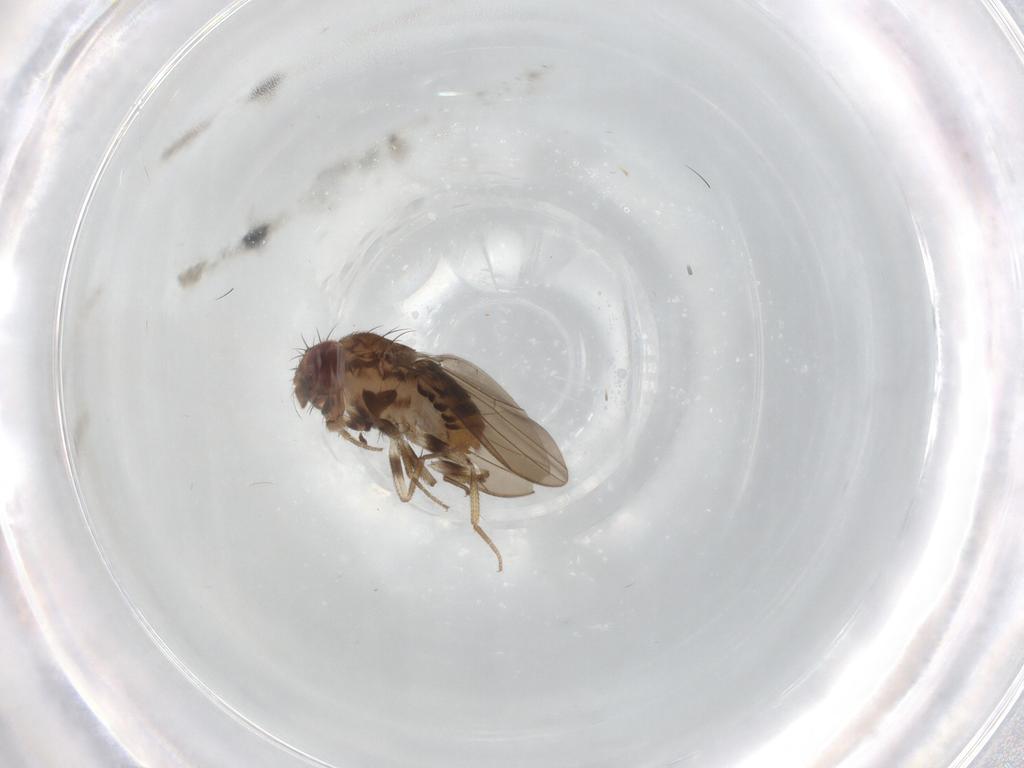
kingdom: Animalia
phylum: Arthropoda
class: Insecta
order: Diptera
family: Drosophilidae
